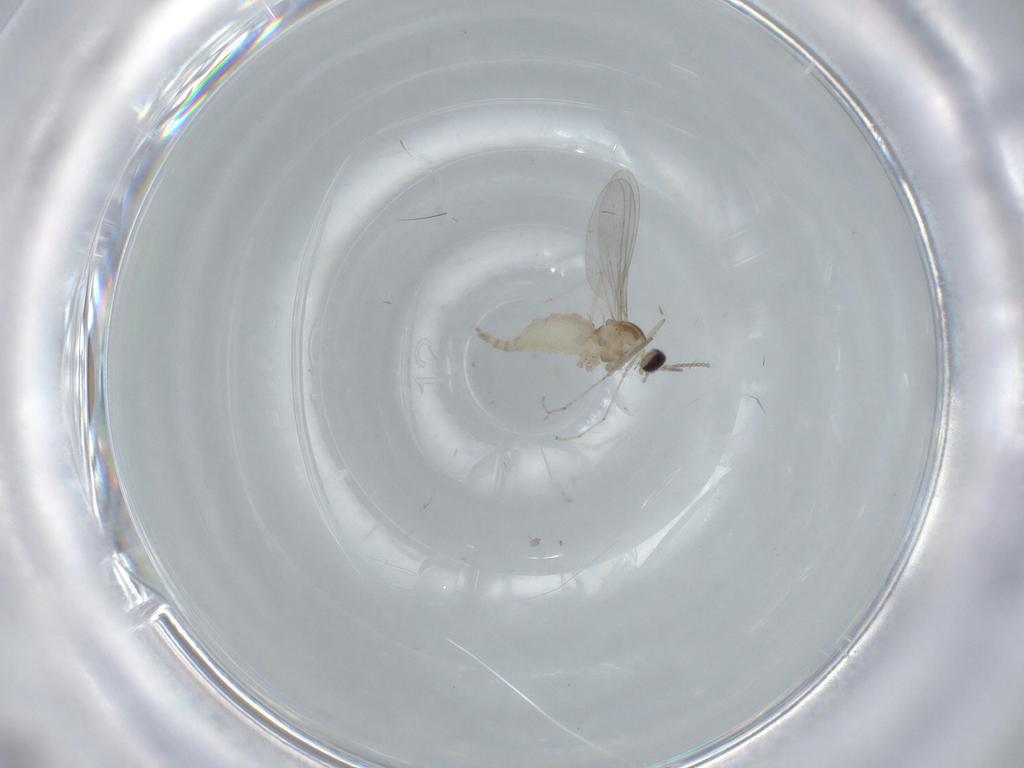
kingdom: Animalia
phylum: Arthropoda
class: Insecta
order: Diptera
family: Cecidomyiidae
